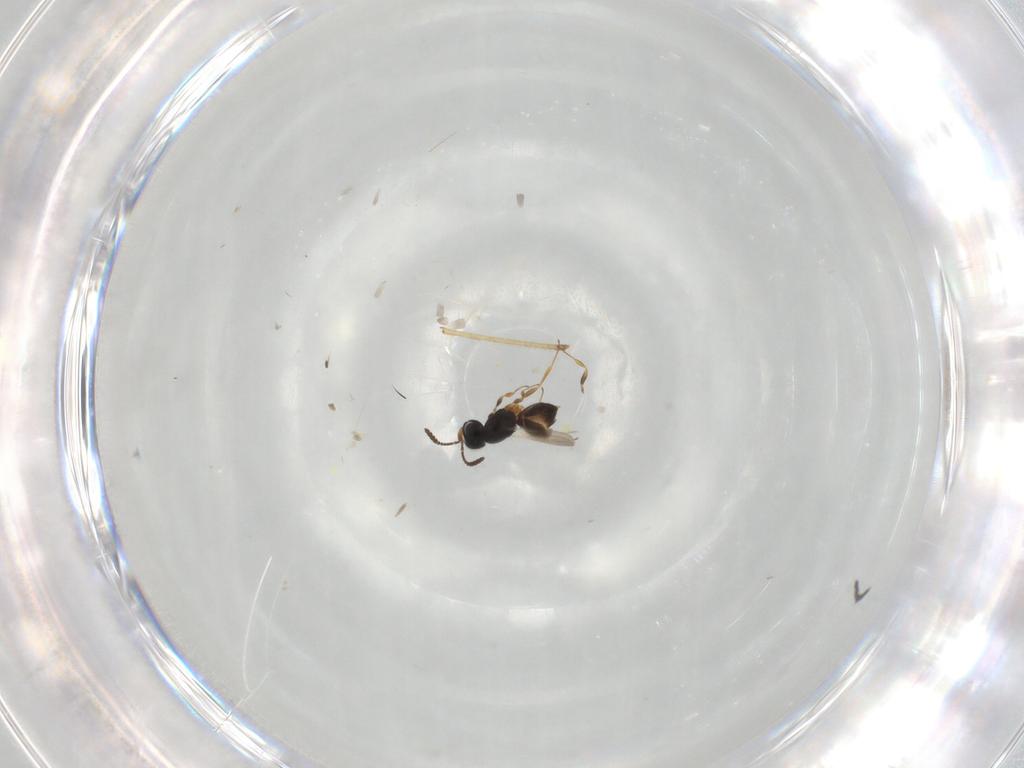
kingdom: Animalia
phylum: Arthropoda
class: Insecta
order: Hymenoptera
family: Scelionidae
